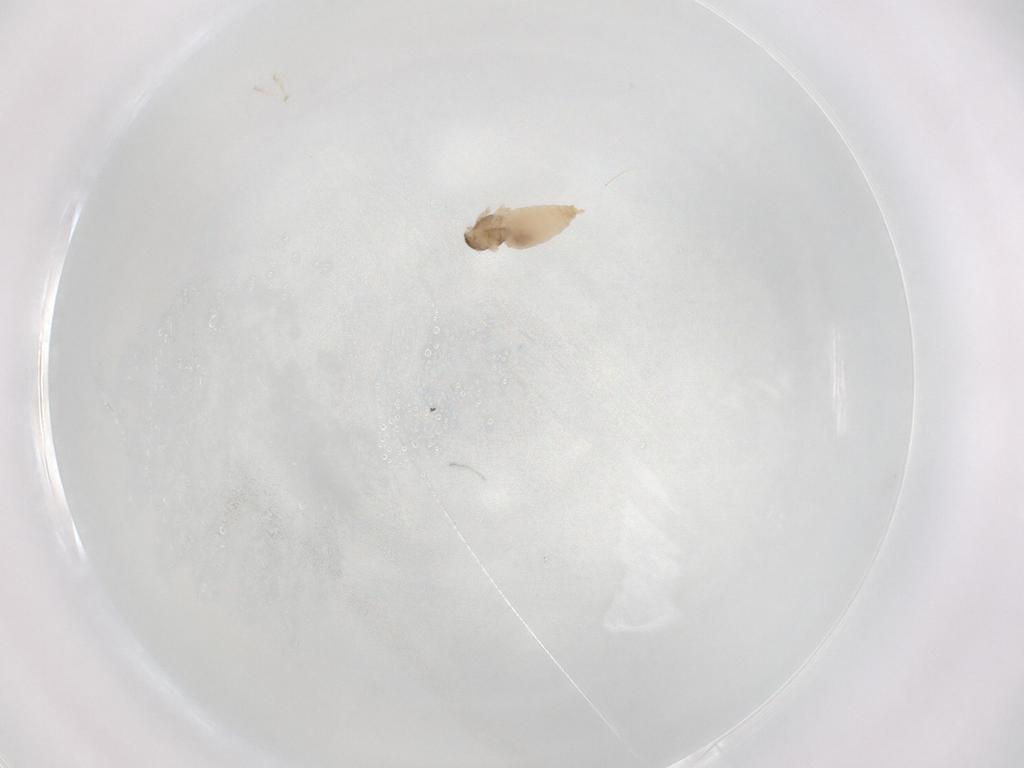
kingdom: Animalia
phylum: Arthropoda
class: Insecta
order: Diptera
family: Cecidomyiidae
